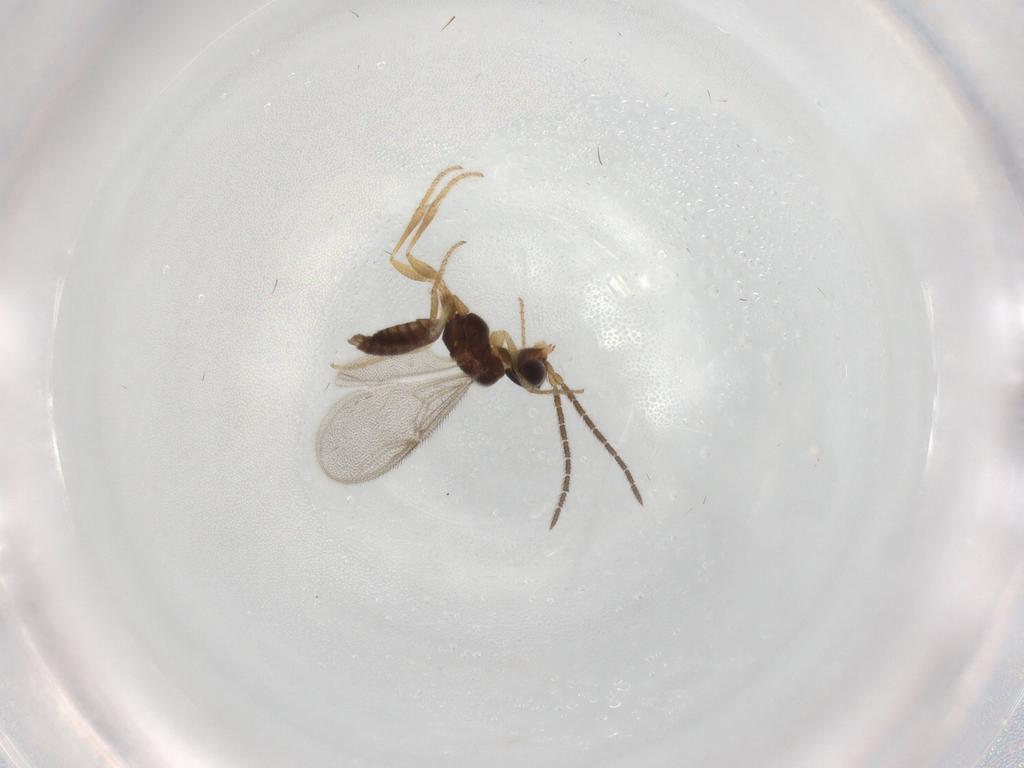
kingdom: Animalia
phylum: Arthropoda
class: Insecta
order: Hymenoptera
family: Dryinidae
